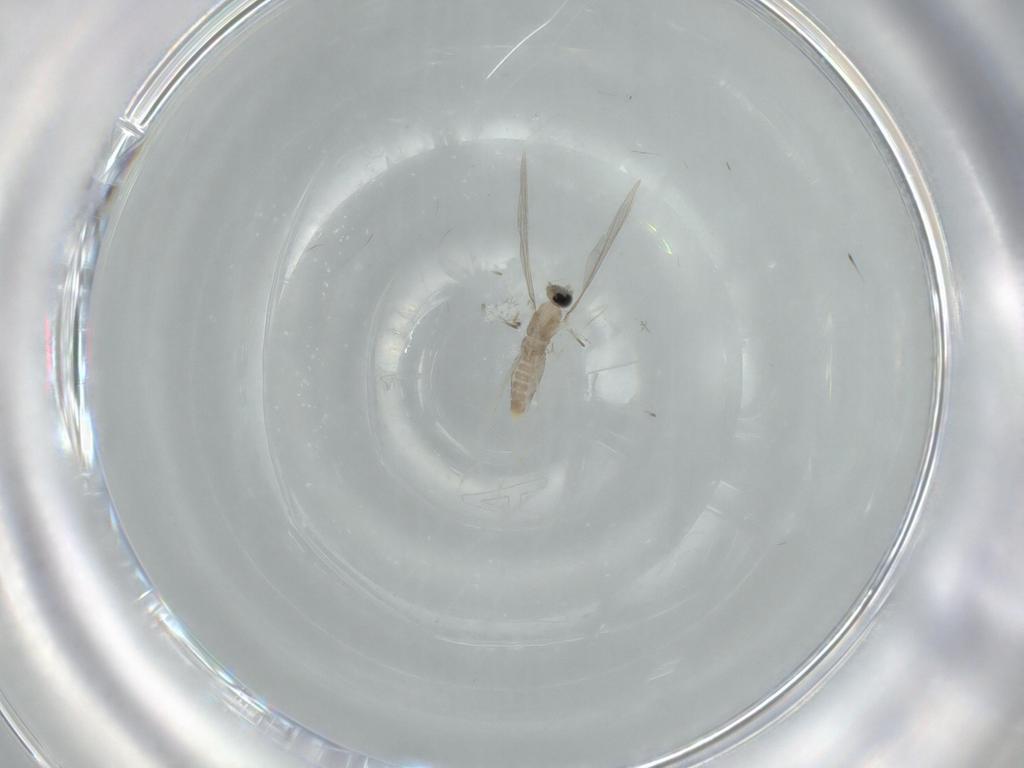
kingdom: Animalia
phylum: Arthropoda
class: Insecta
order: Diptera
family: Cecidomyiidae
